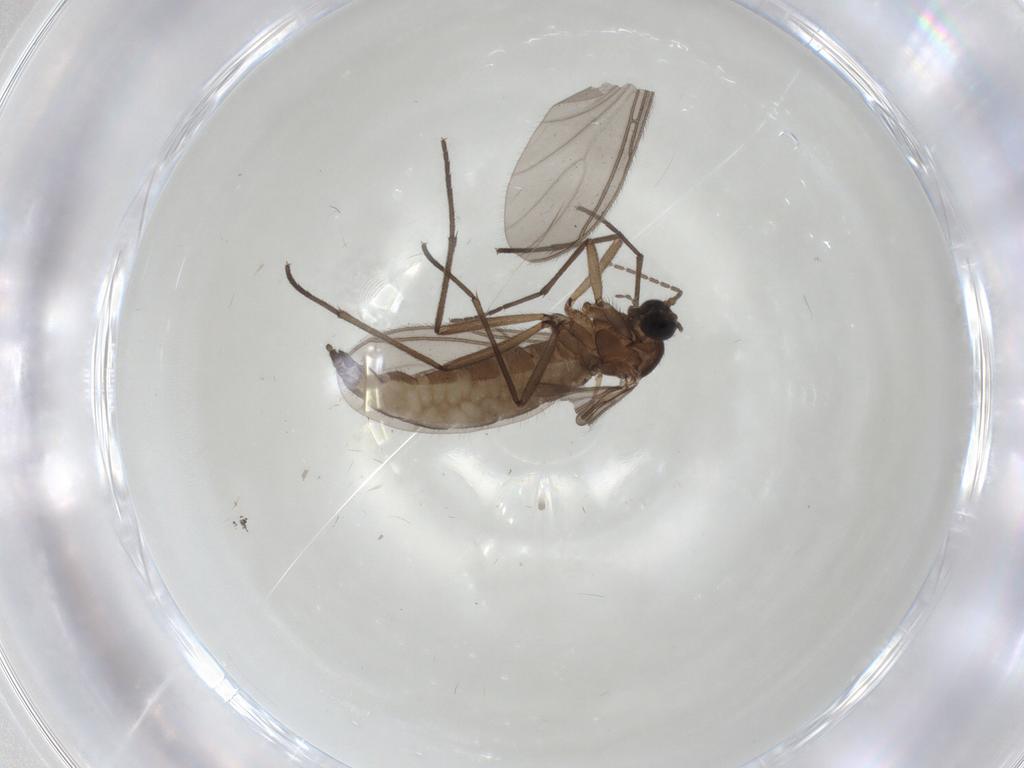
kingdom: Animalia
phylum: Arthropoda
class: Insecta
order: Diptera
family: Sciaridae
